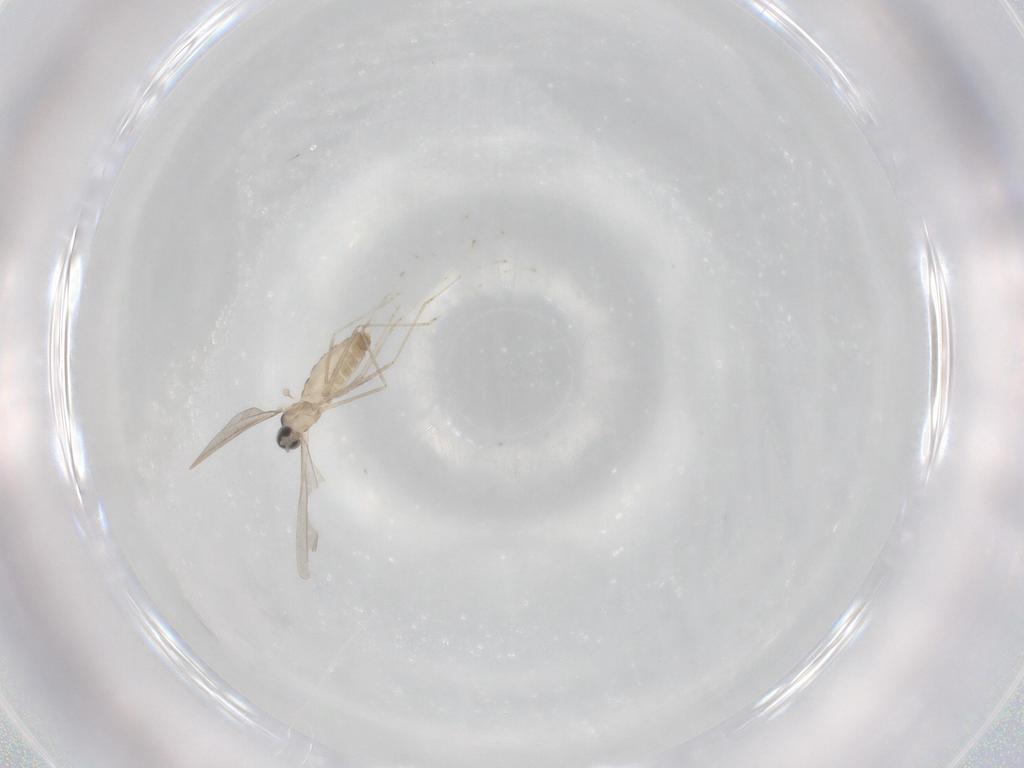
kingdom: Animalia
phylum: Arthropoda
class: Insecta
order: Diptera
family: Cecidomyiidae
